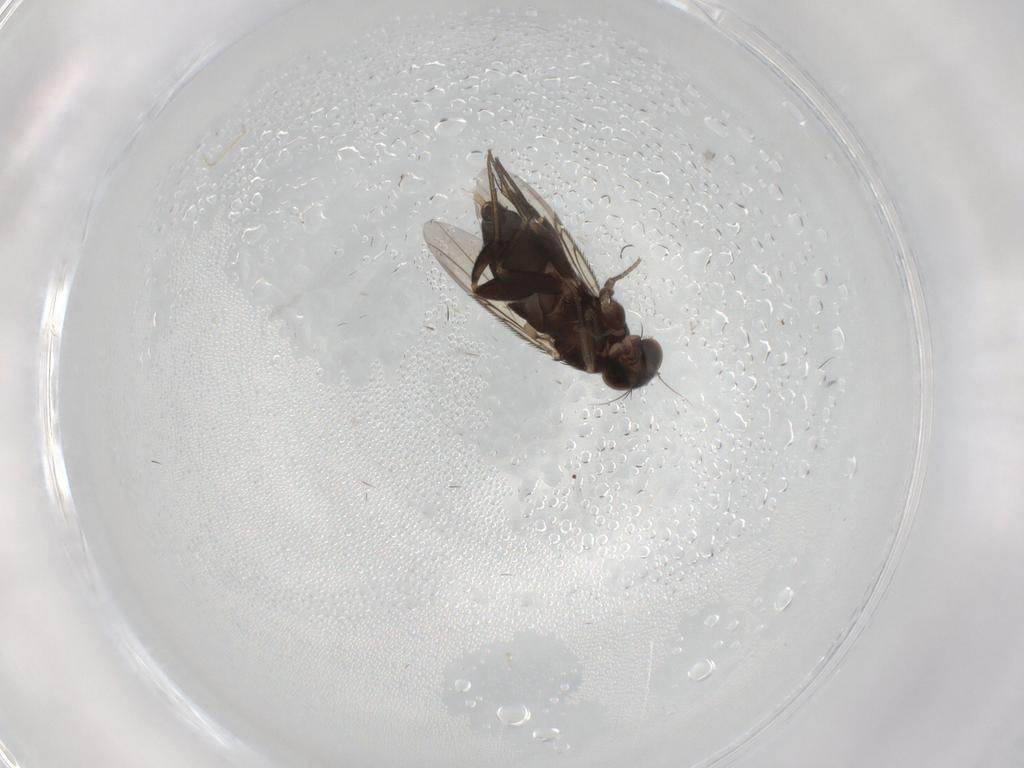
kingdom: Animalia
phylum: Arthropoda
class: Insecta
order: Diptera
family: Phoridae
